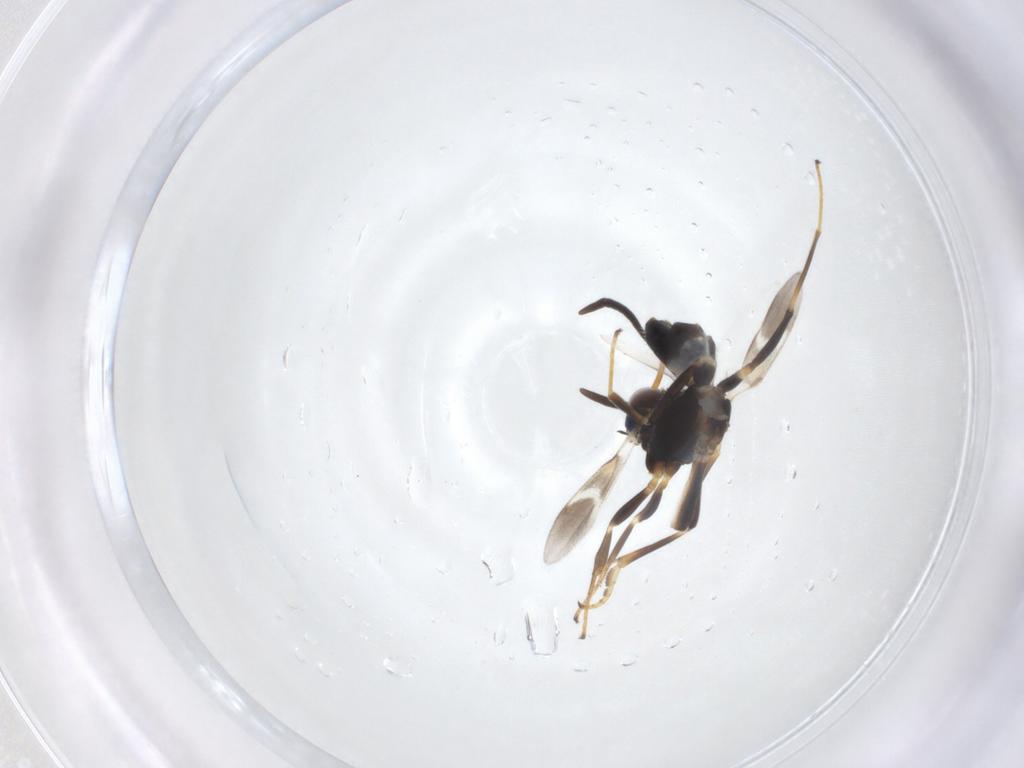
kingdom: Animalia
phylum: Arthropoda
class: Insecta
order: Hymenoptera
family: Eupelmidae
